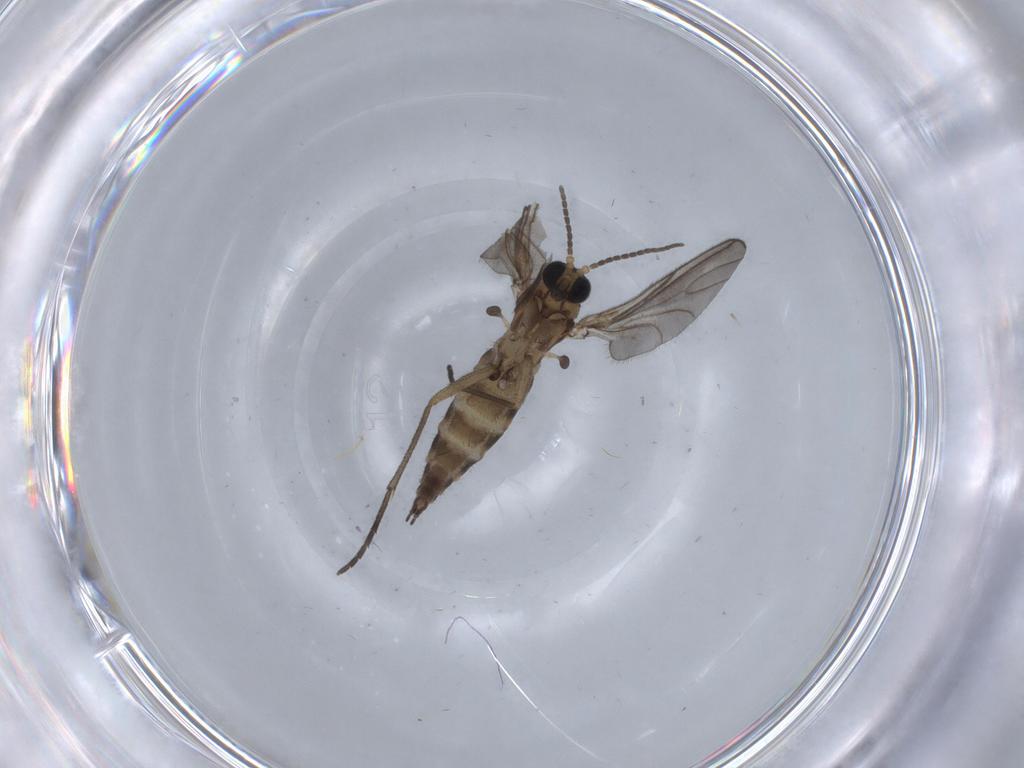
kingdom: Animalia
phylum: Arthropoda
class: Insecta
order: Diptera
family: Sciaridae
